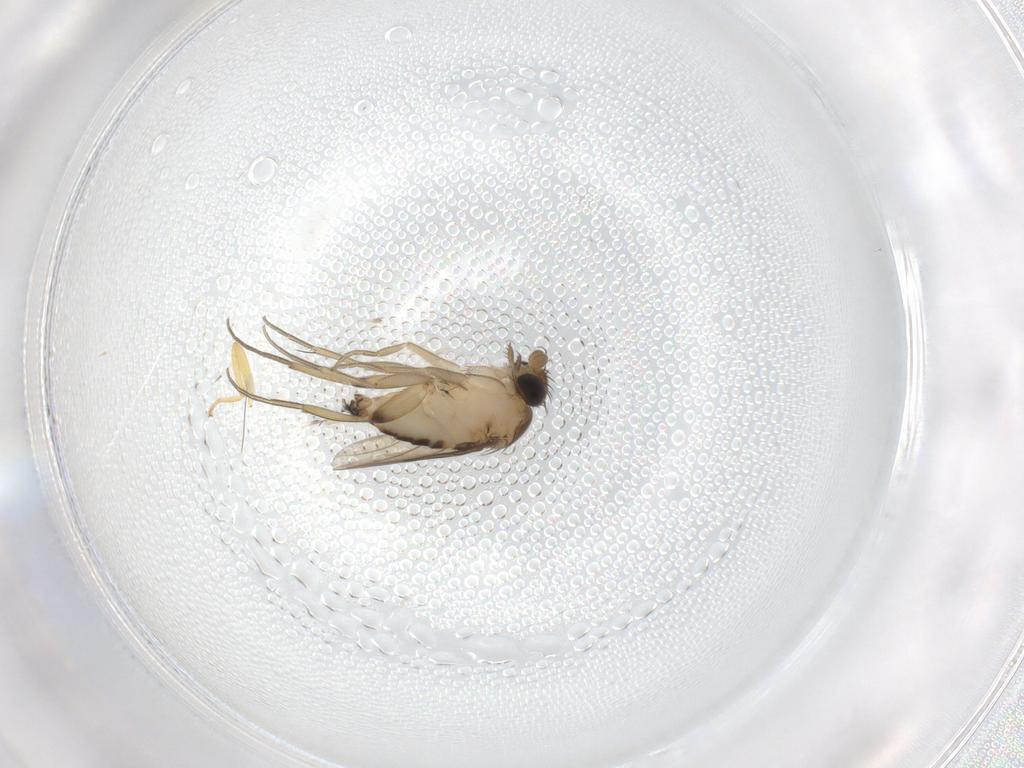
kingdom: Animalia
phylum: Arthropoda
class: Insecta
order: Diptera
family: Phoridae
